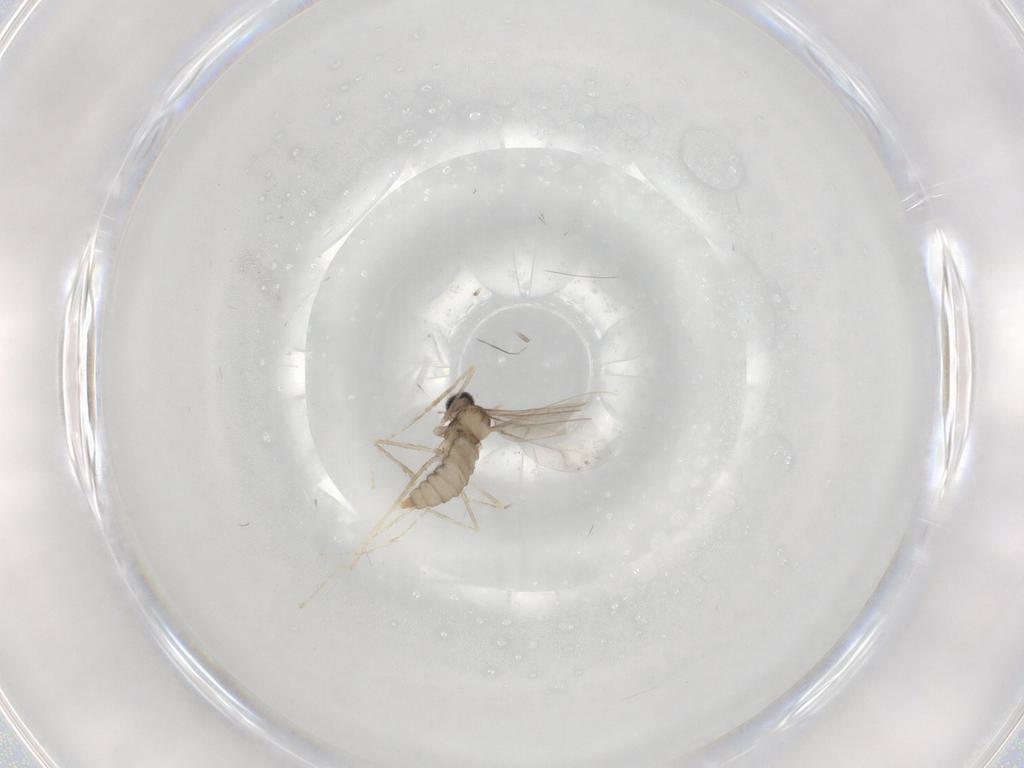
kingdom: Animalia
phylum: Arthropoda
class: Insecta
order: Diptera
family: Cecidomyiidae
